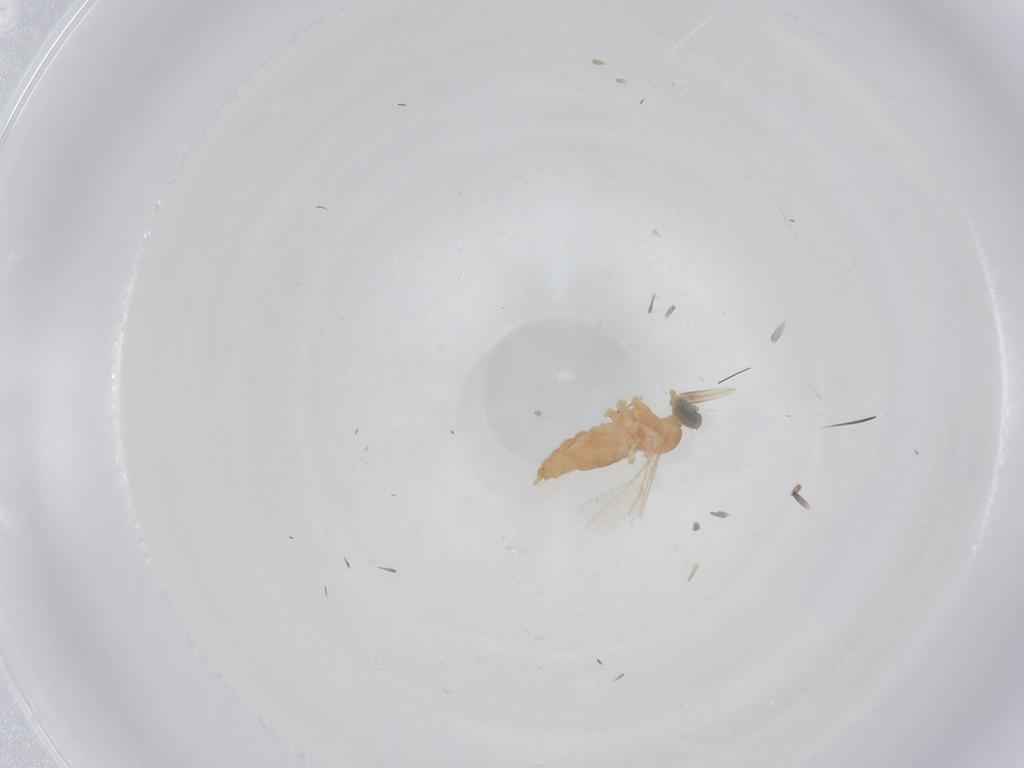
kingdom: Animalia
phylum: Arthropoda
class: Insecta
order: Diptera
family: Cecidomyiidae
